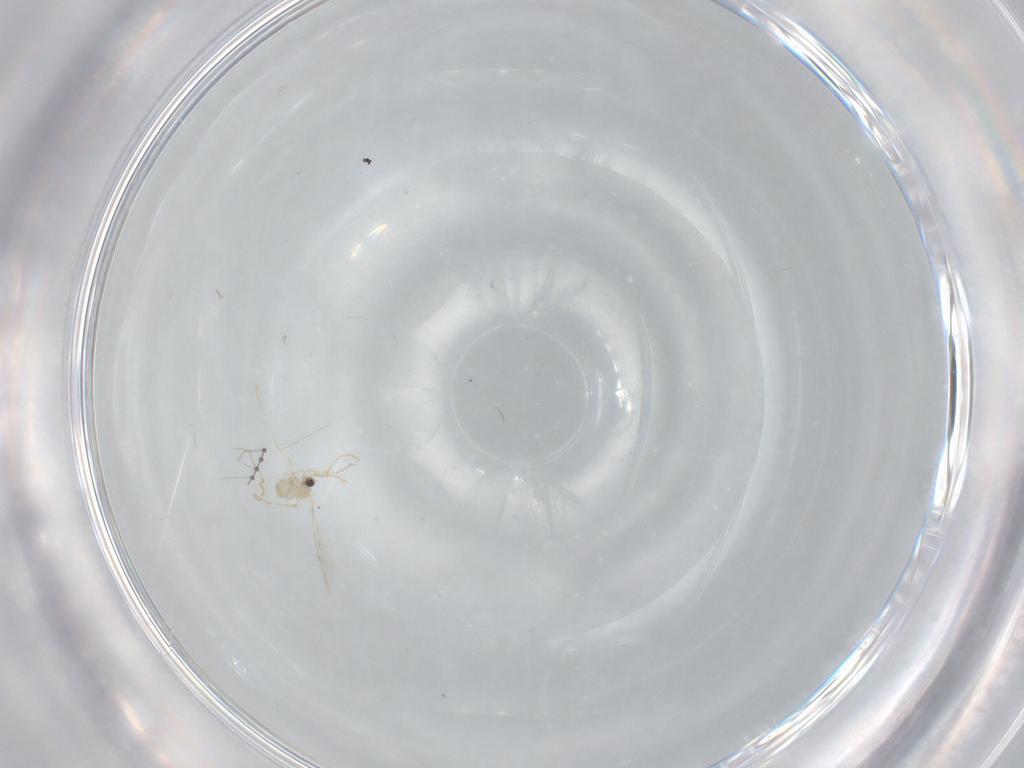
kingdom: Animalia
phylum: Arthropoda
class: Insecta
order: Diptera
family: Cecidomyiidae
